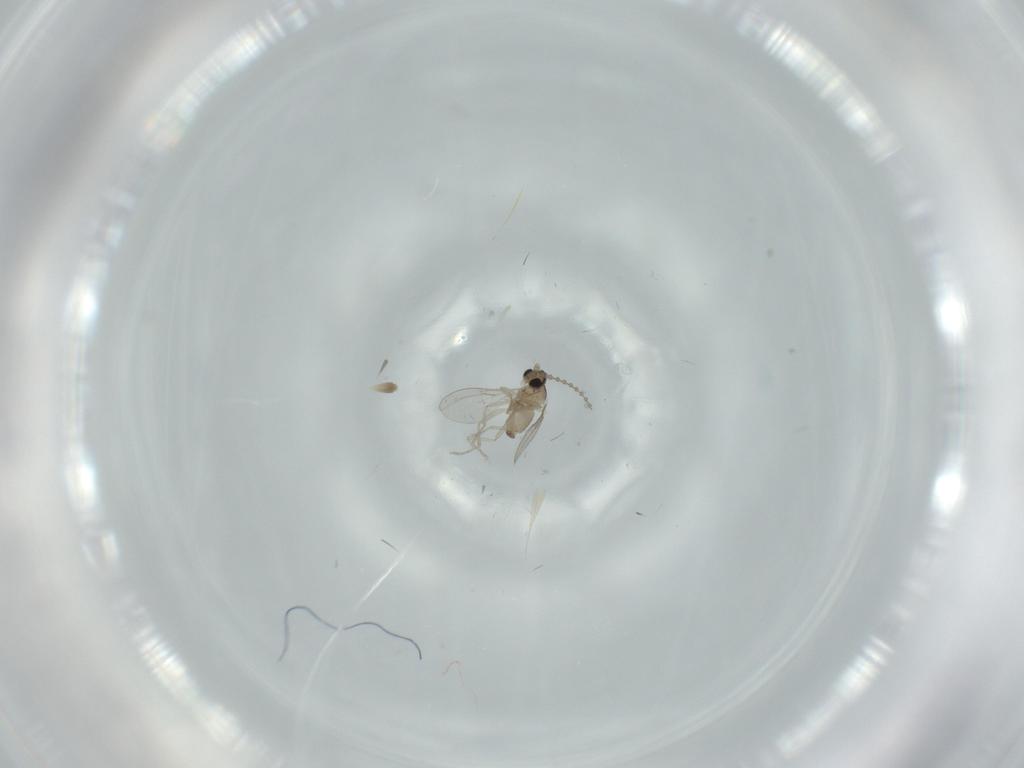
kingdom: Animalia
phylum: Arthropoda
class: Insecta
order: Diptera
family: Cecidomyiidae
